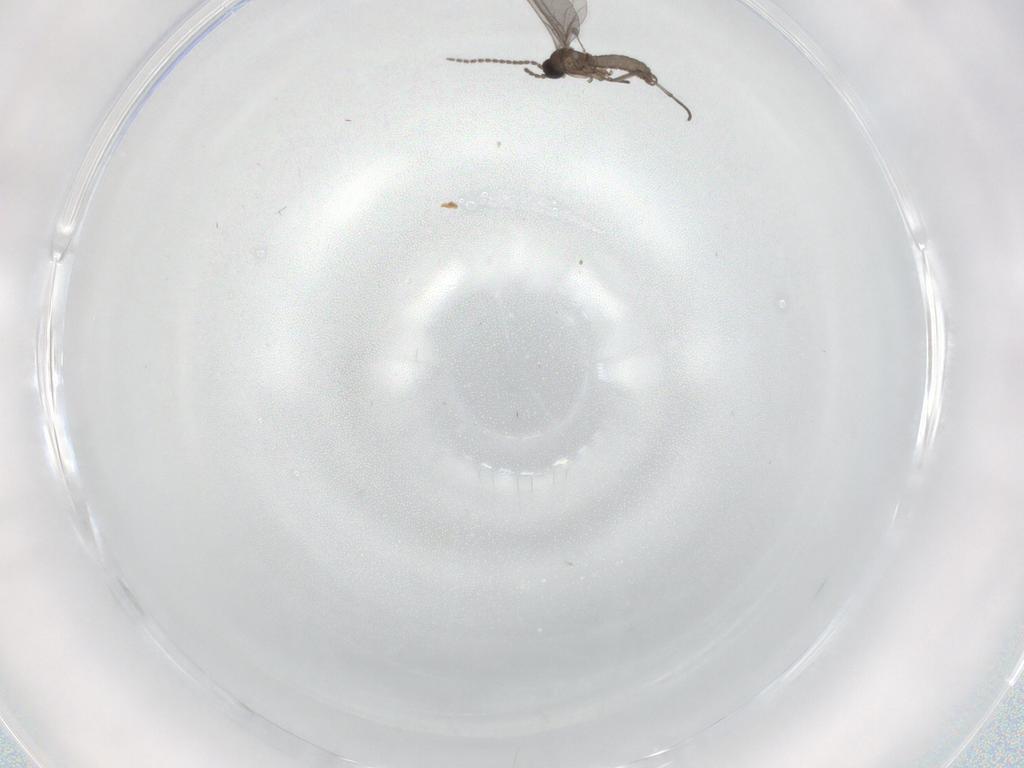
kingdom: Animalia
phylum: Arthropoda
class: Insecta
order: Diptera
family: Sciaridae
